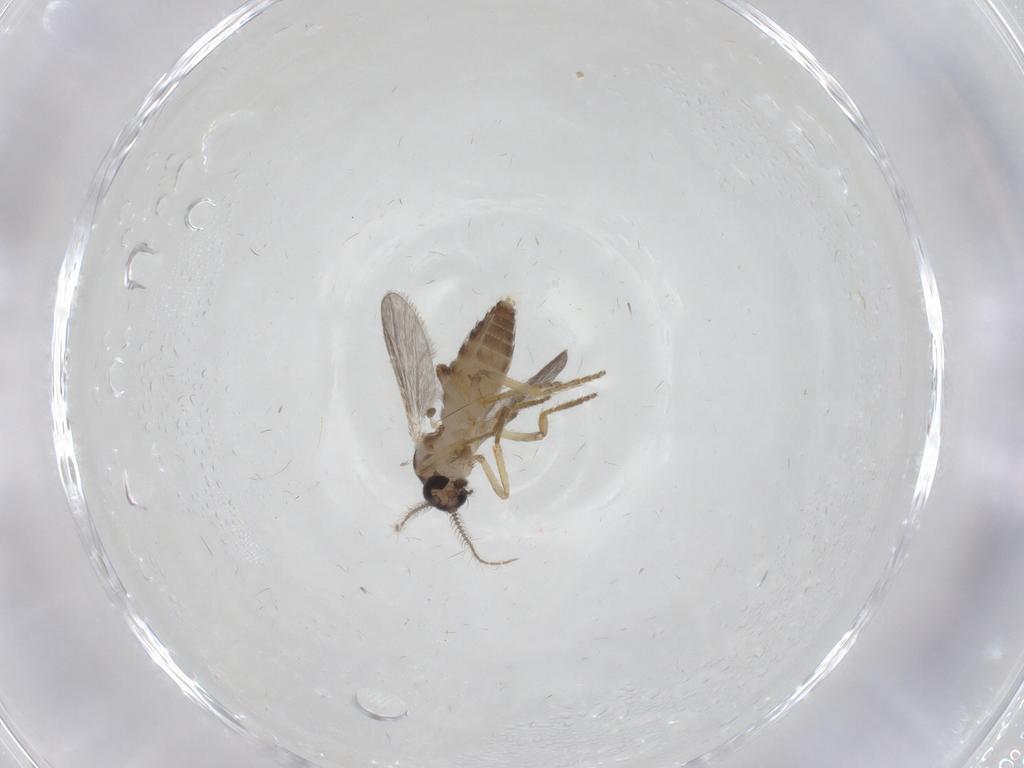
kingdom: Animalia
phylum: Arthropoda
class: Insecta
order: Diptera
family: Ceratopogonidae
